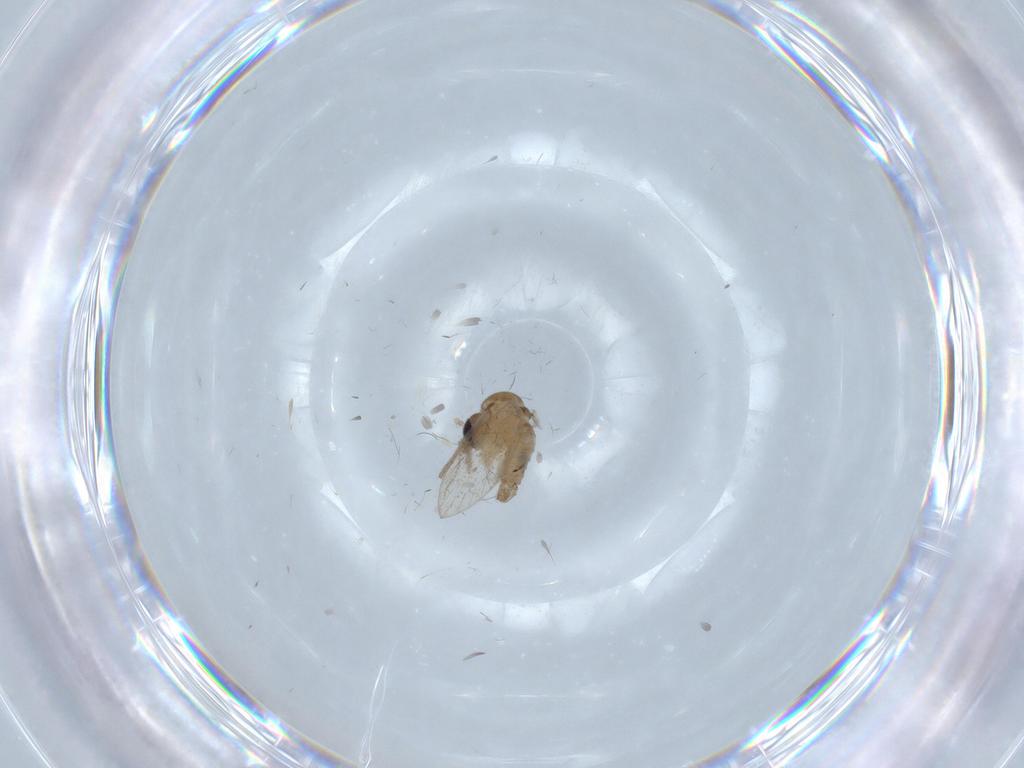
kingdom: Animalia
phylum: Arthropoda
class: Insecta
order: Diptera
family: Psychodidae
